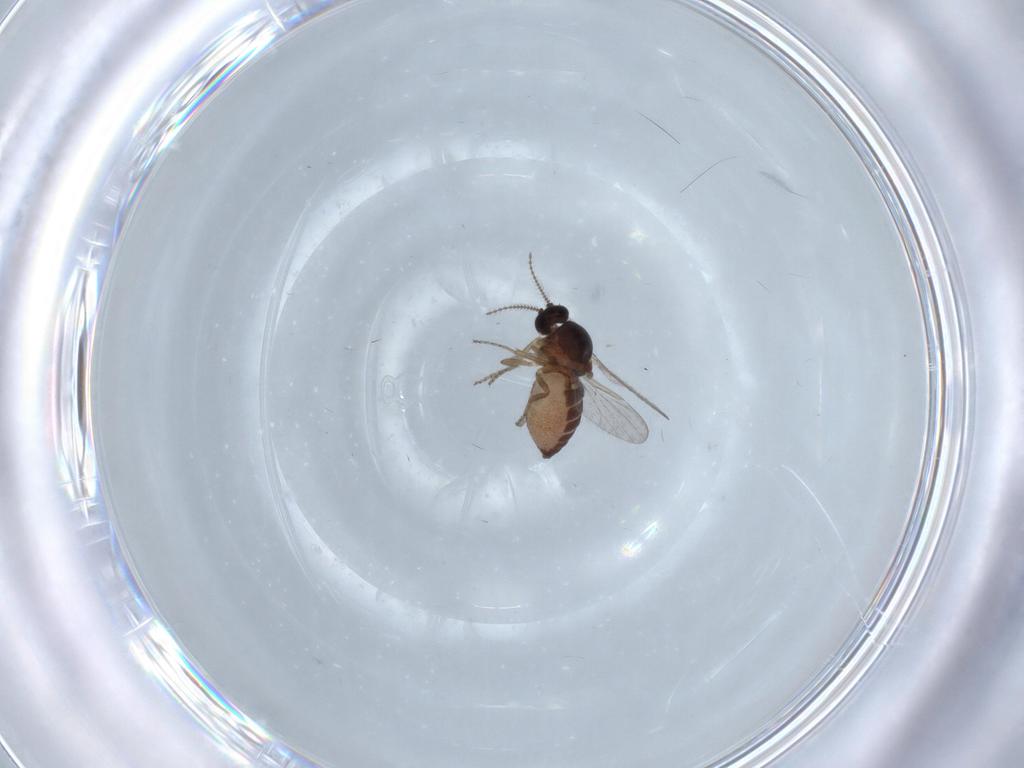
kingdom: Animalia
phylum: Arthropoda
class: Insecta
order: Diptera
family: Ceratopogonidae
